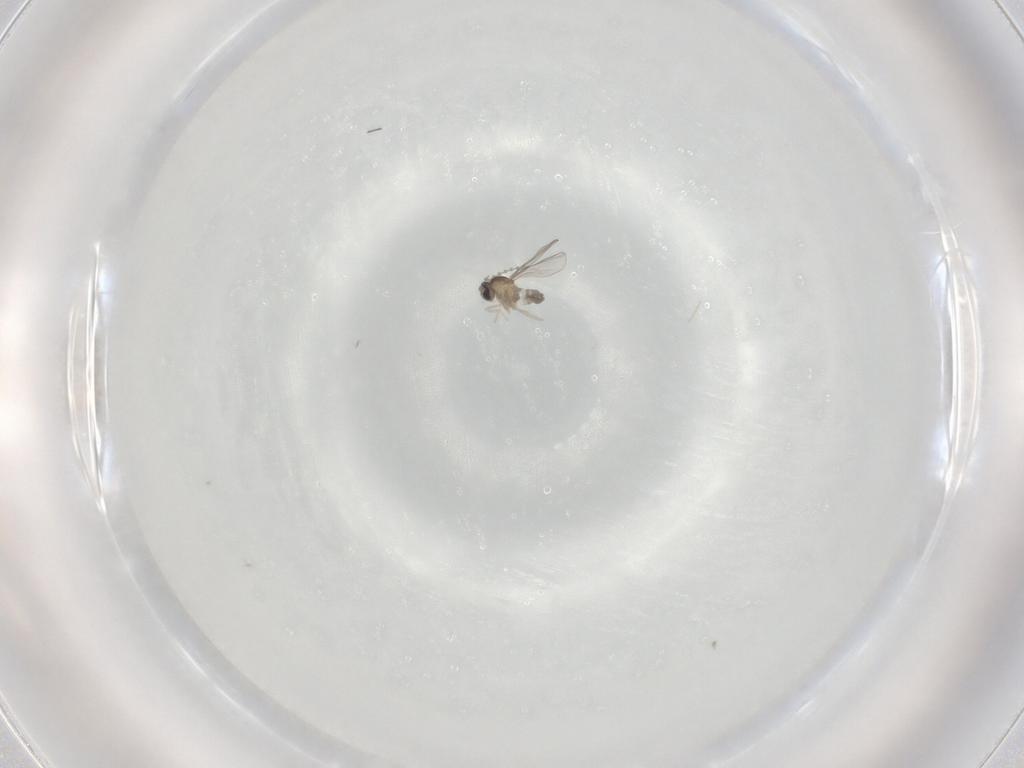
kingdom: Animalia
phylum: Arthropoda
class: Insecta
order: Diptera
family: Cecidomyiidae
